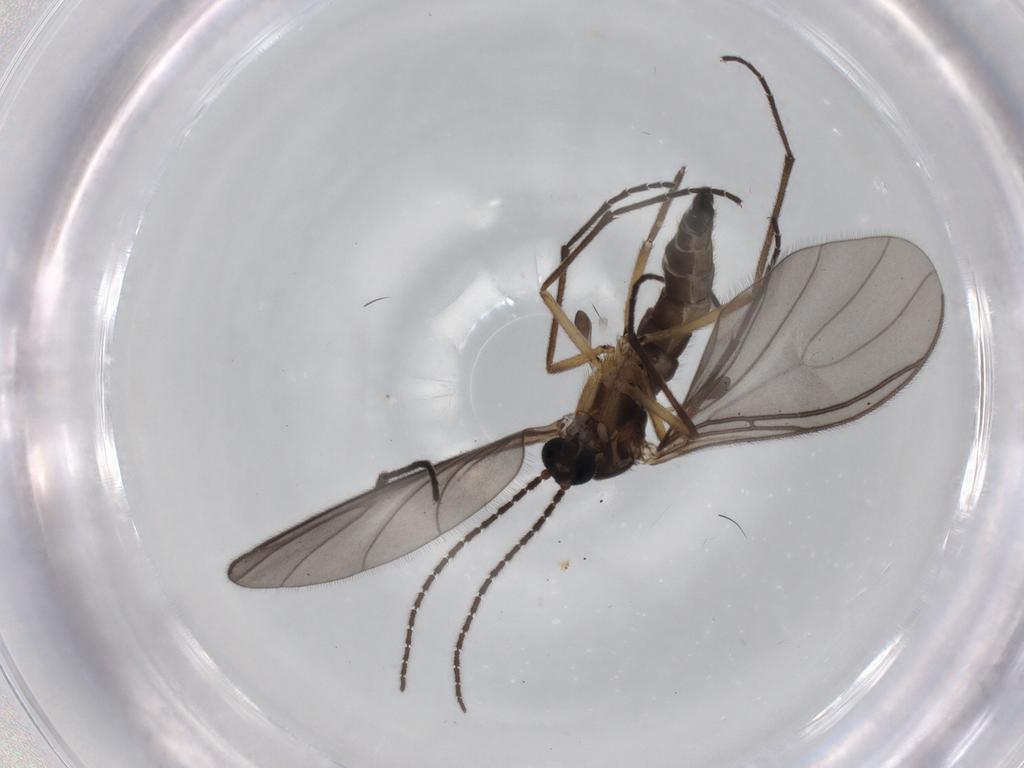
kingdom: Animalia
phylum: Arthropoda
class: Insecta
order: Diptera
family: Sciaridae
